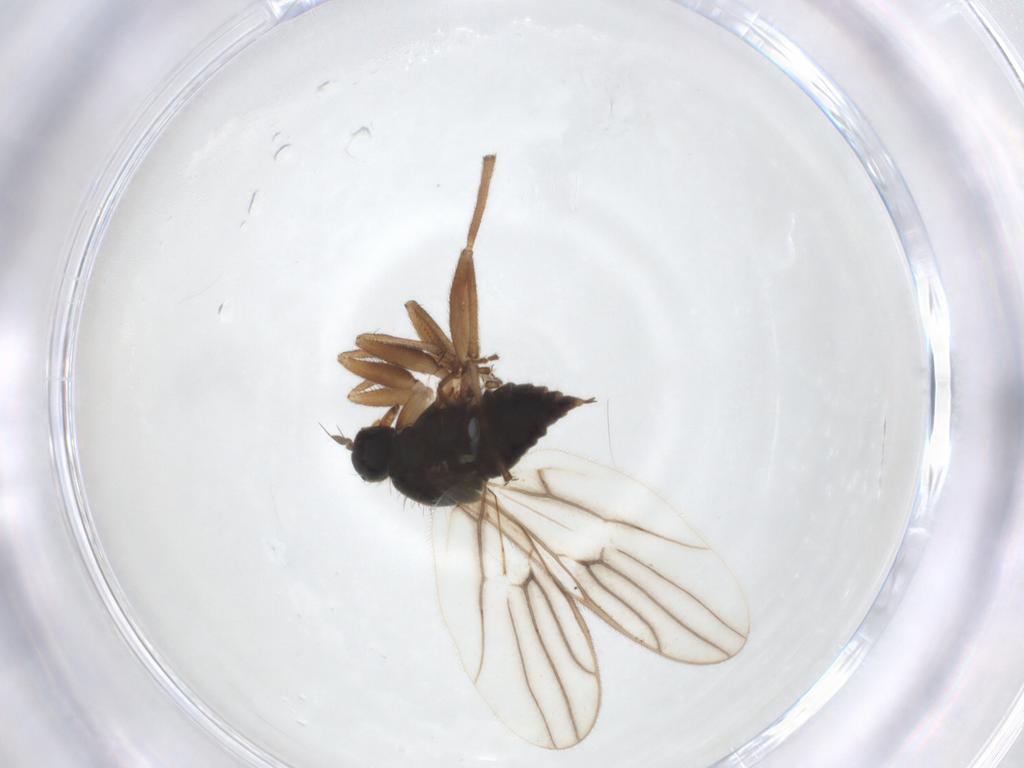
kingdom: Animalia
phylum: Arthropoda
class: Insecta
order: Diptera
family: Hybotidae
